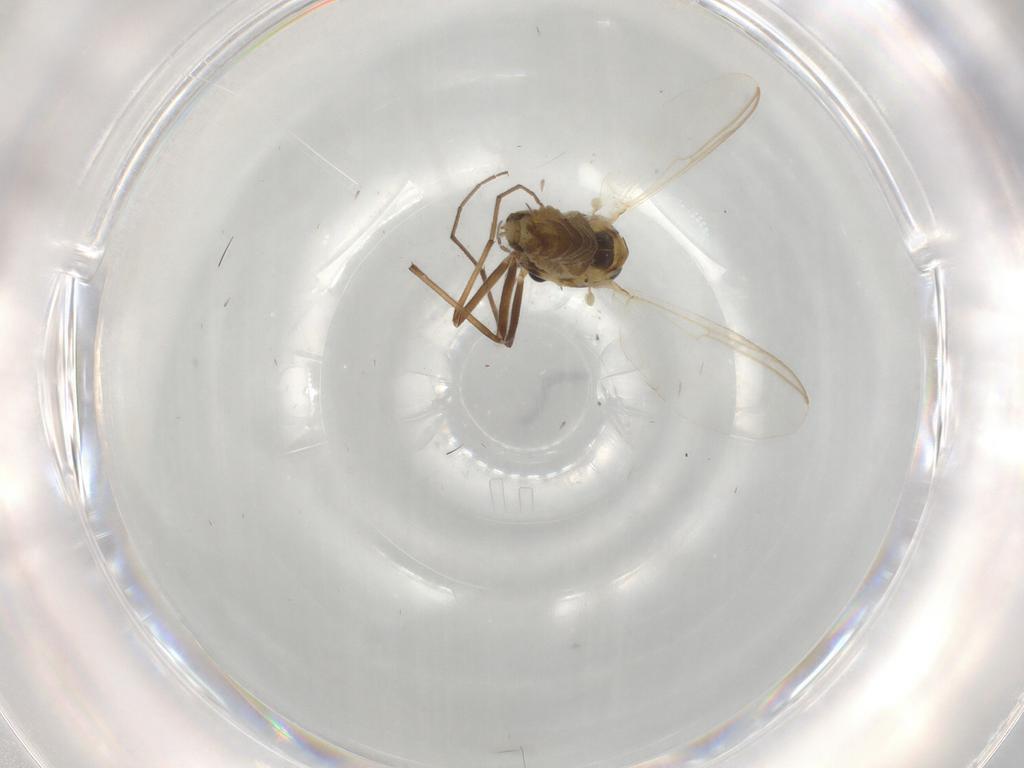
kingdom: Animalia
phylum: Arthropoda
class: Insecta
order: Diptera
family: Chironomidae
